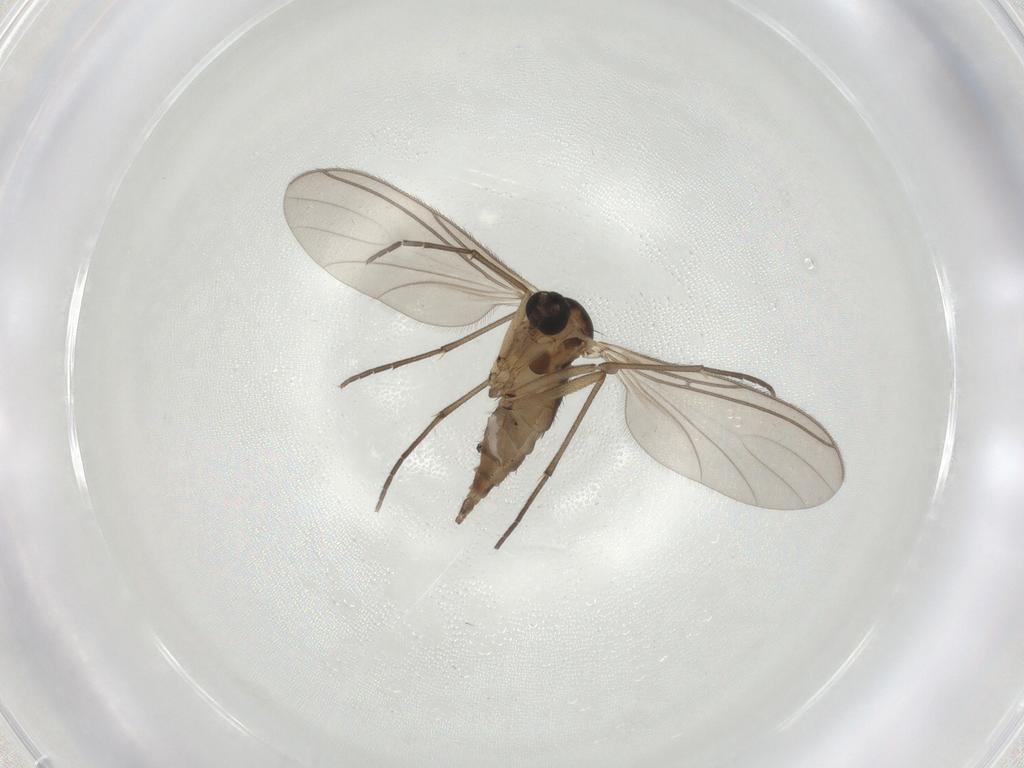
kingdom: Animalia
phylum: Arthropoda
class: Insecta
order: Diptera
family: Sciaridae
